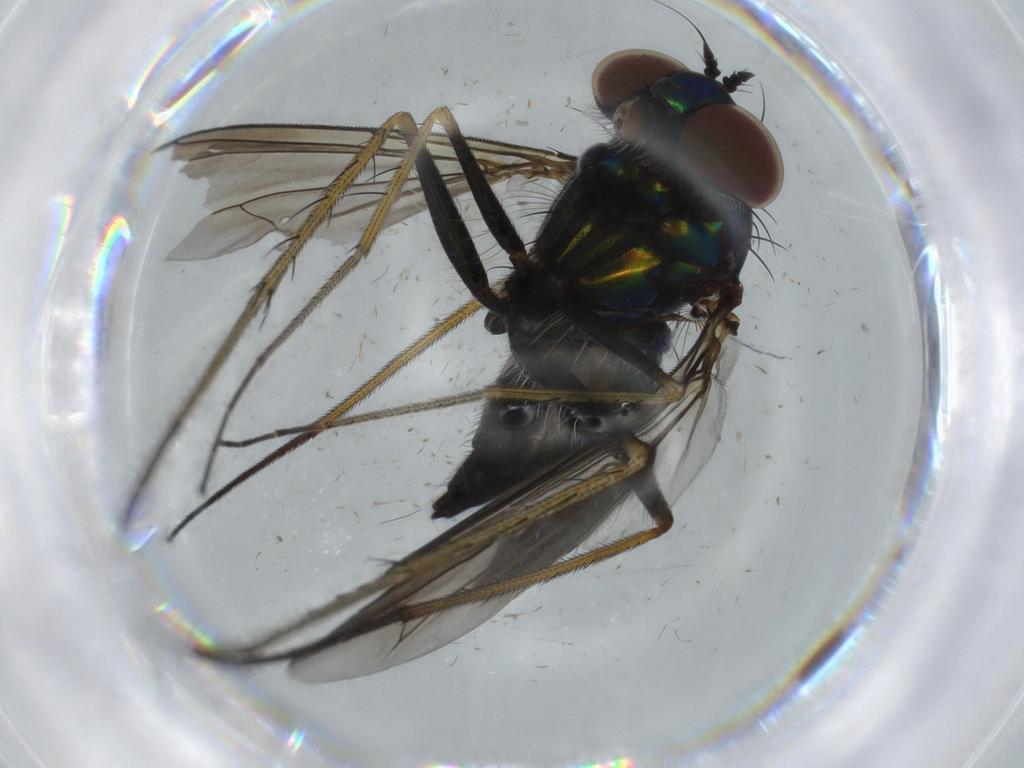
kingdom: Animalia
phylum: Arthropoda
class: Insecta
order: Diptera
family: Dolichopodidae
